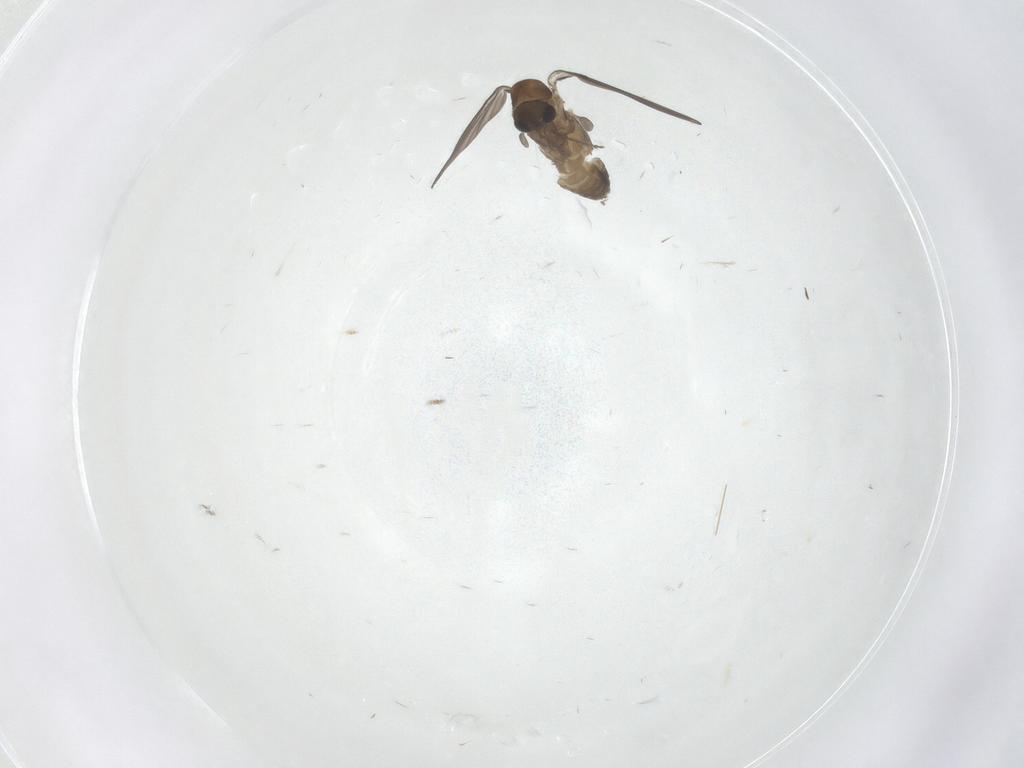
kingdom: Animalia
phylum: Arthropoda
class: Insecta
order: Diptera
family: Psychodidae
